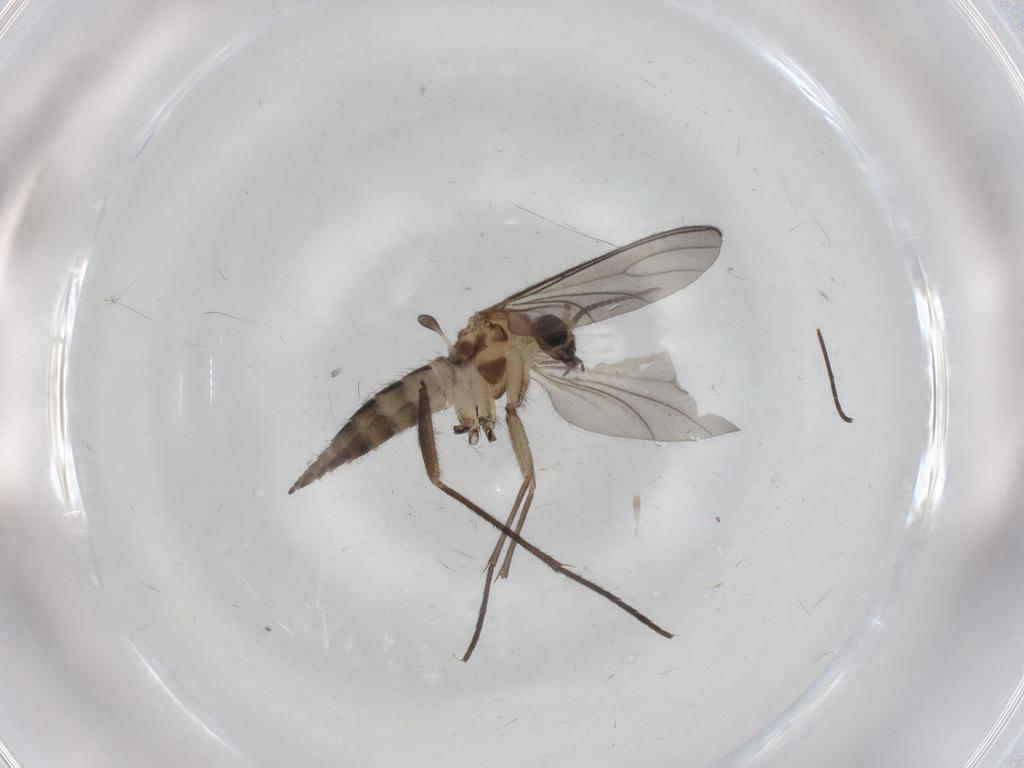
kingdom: Animalia
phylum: Arthropoda
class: Insecta
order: Diptera
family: Sciaridae
